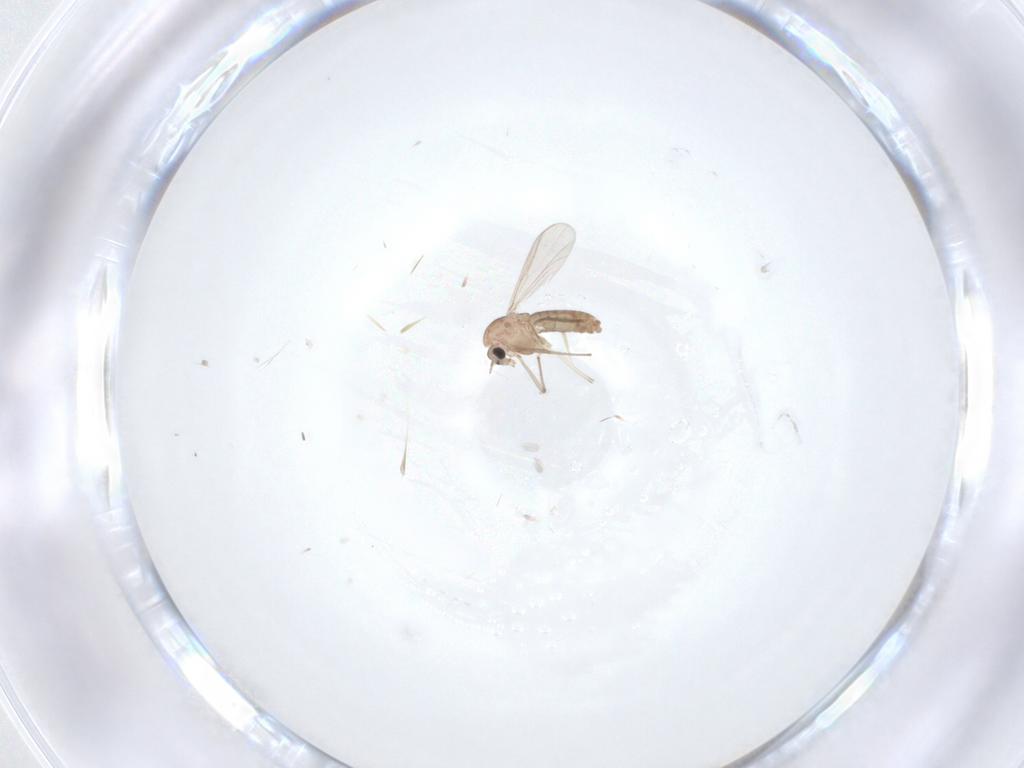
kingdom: Animalia
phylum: Arthropoda
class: Insecta
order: Diptera
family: Chironomidae
